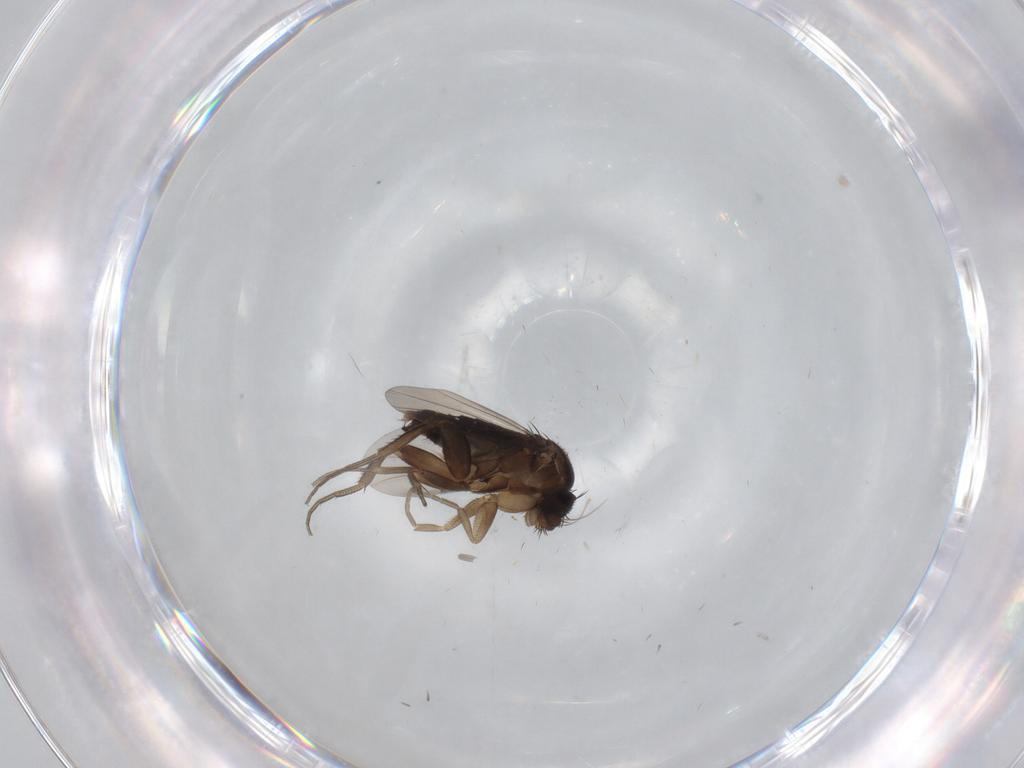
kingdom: Animalia
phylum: Arthropoda
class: Insecta
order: Diptera
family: Phoridae
